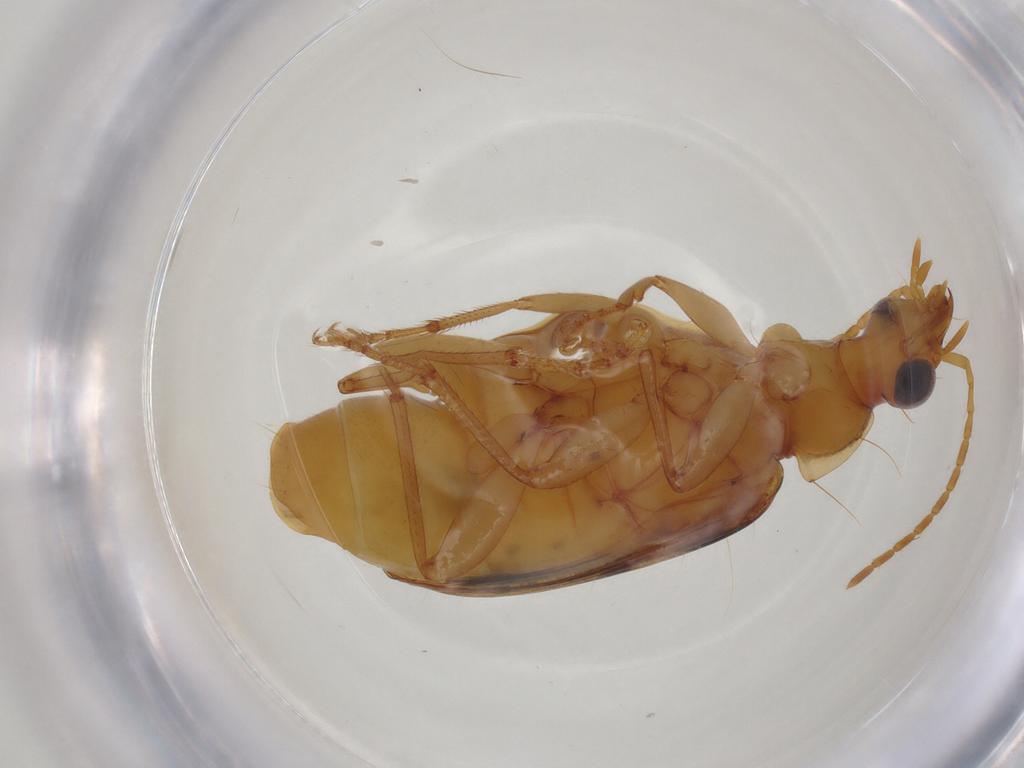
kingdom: Animalia
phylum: Arthropoda
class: Insecta
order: Coleoptera
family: Carabidae
